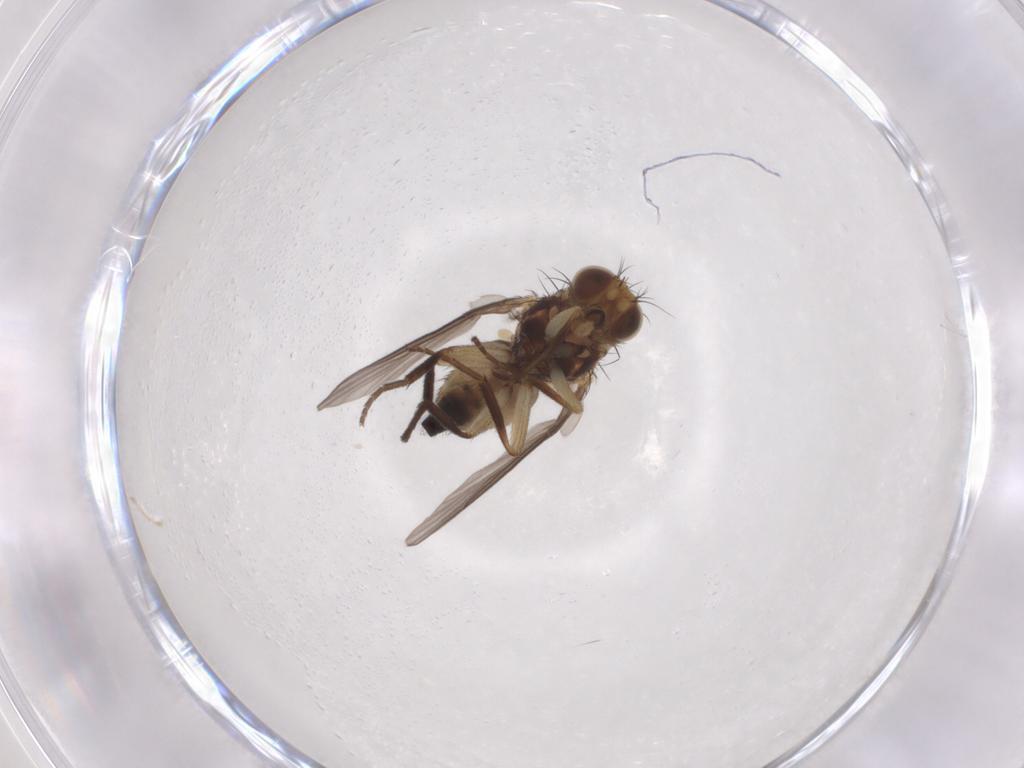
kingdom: Animalia
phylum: Arthropoda
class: Insecta
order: Diptera
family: Agromyzidae
